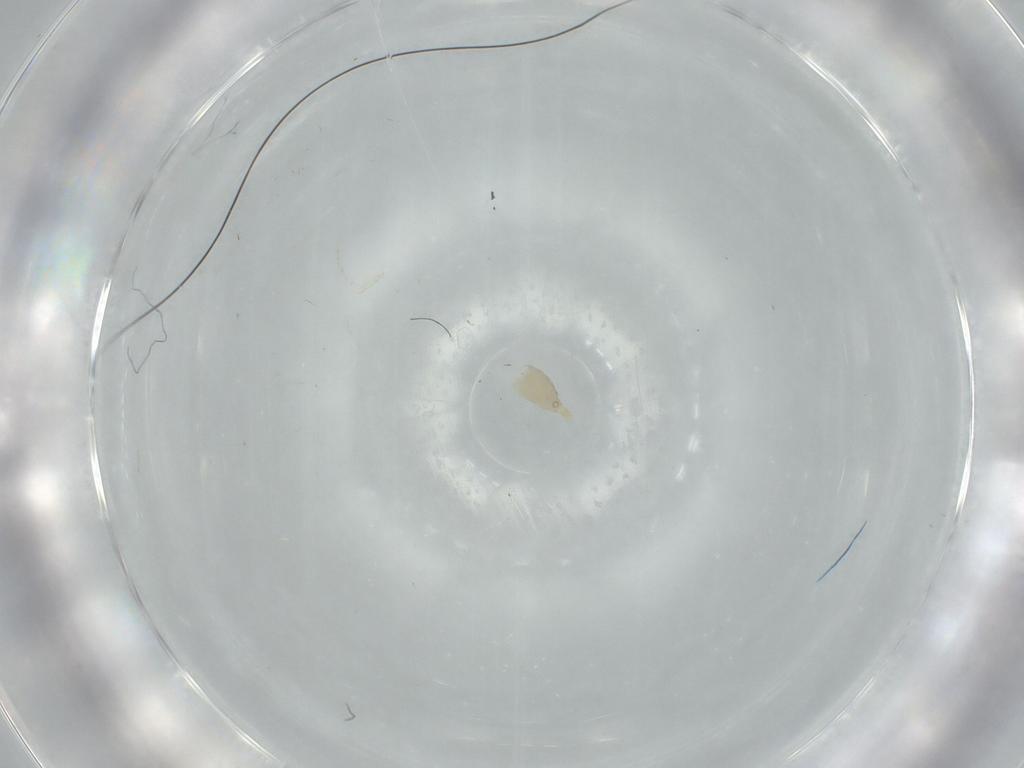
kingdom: Animalia
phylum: Arthropoda
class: Insecta
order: Diptera
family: Cecidomyiidae
